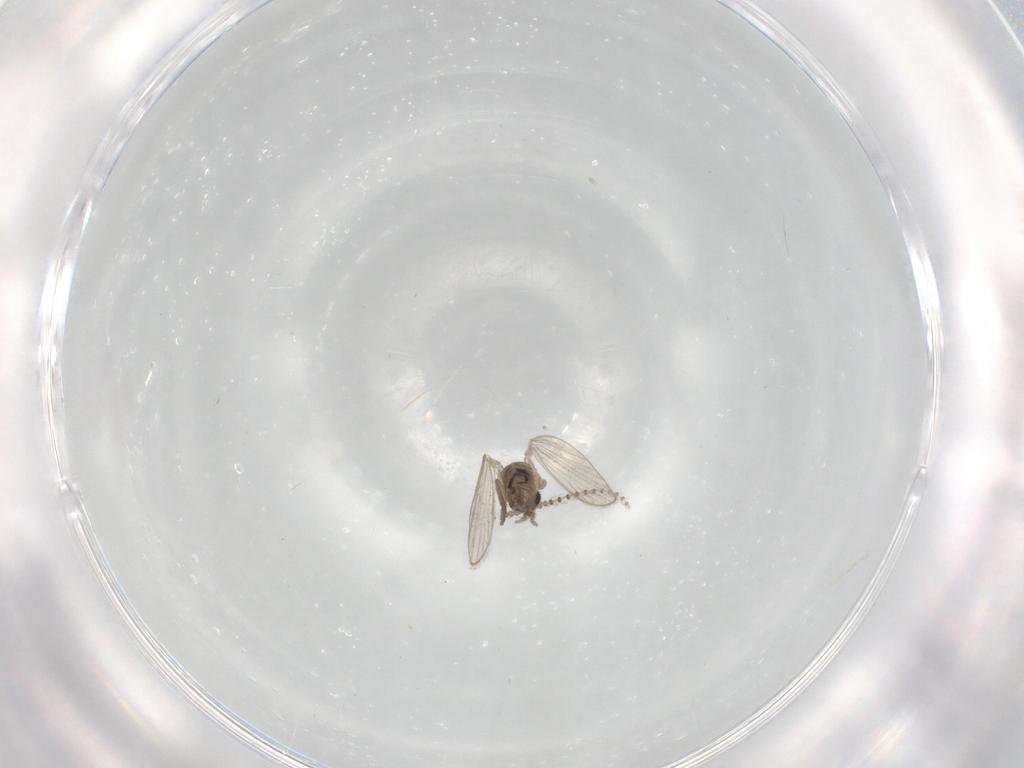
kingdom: Animalia
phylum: Arthropoda
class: Insecta
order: Diptera
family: Psychodidae
